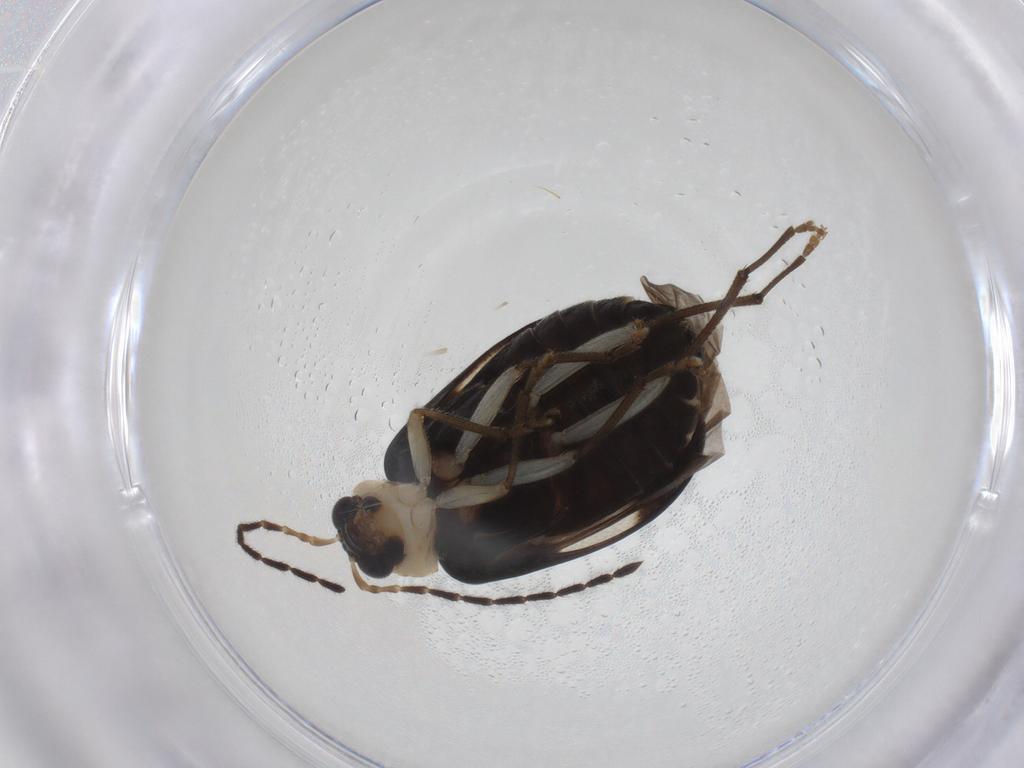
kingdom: Animalia
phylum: Arthropoda
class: Insecta
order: Coleoptera
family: Chrysomelidae
